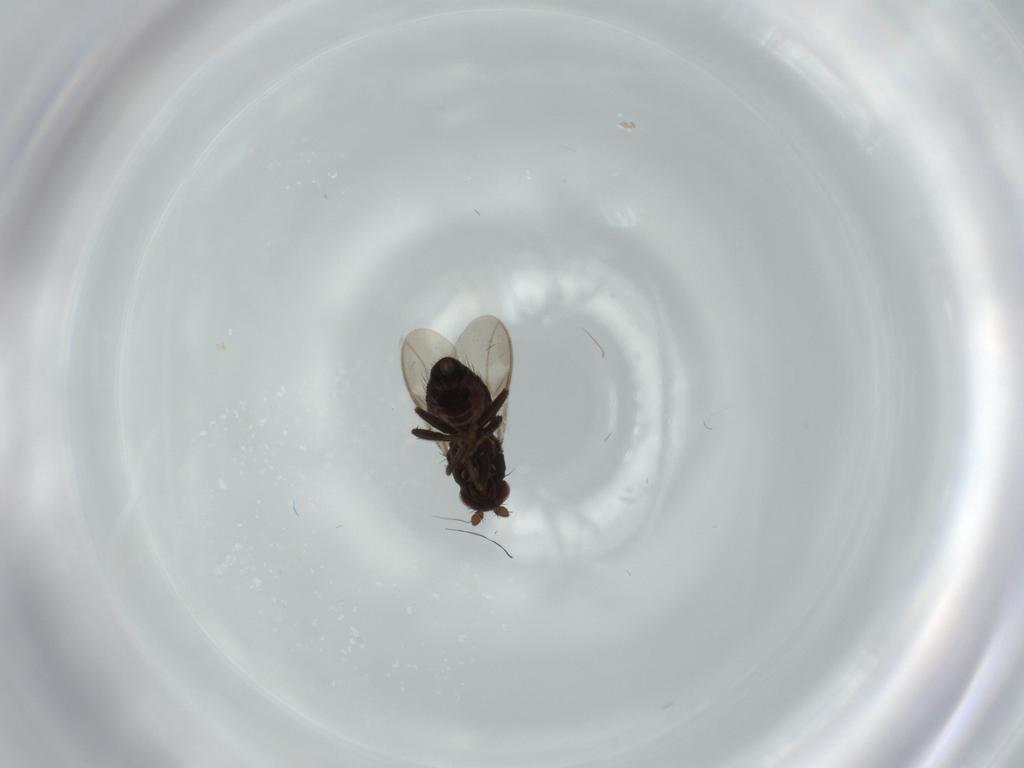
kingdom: Animalia
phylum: Arthropoda
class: Insecta
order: Diptera
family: Sphaeroceridae
